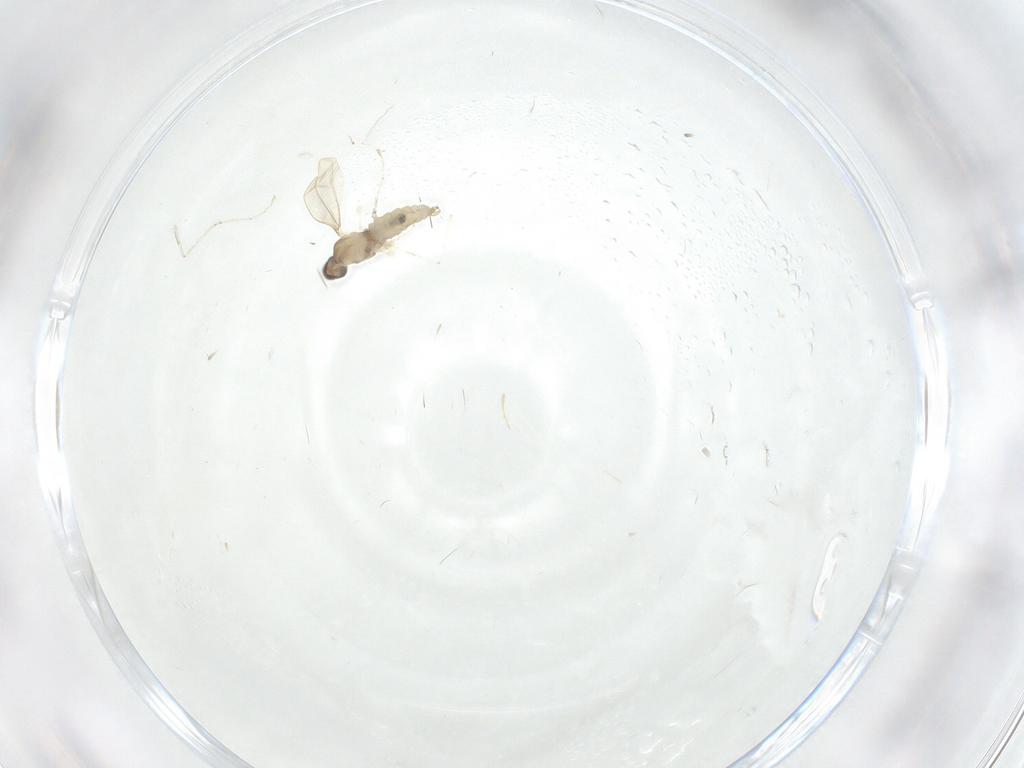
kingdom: Animalia
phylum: Arthropoda
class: Insecta
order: Diptera
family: Cecidomyiidae
